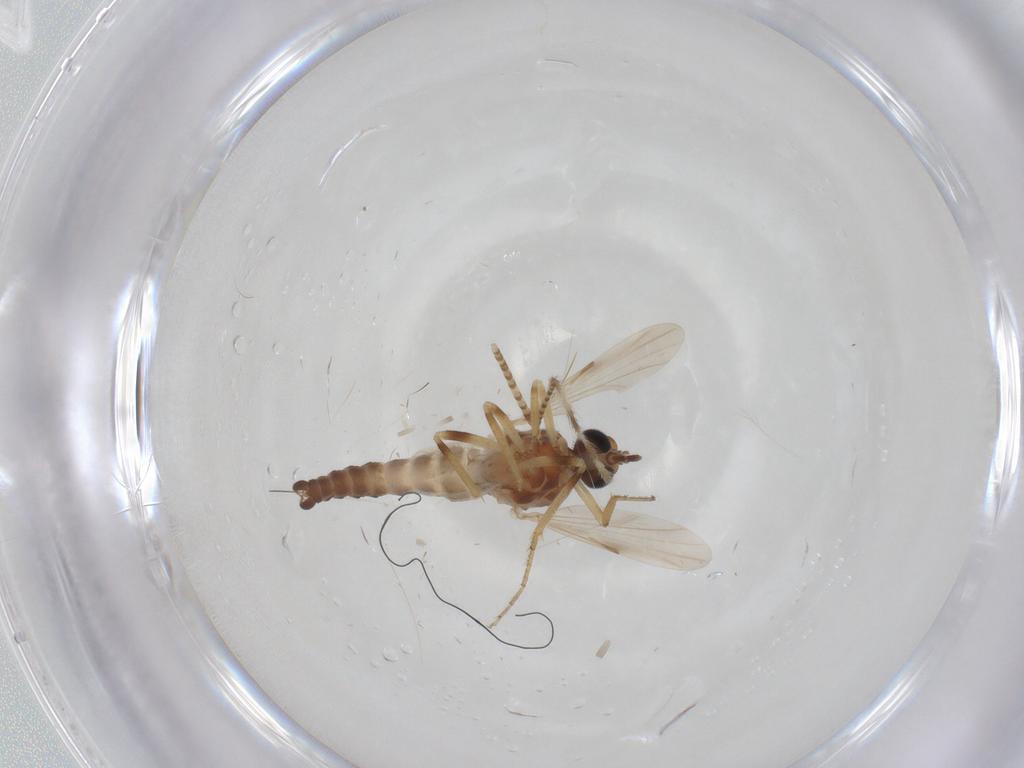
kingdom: Animalia
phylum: Arthropoda
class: Insecta
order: Diptera
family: Ceratopogonidae
